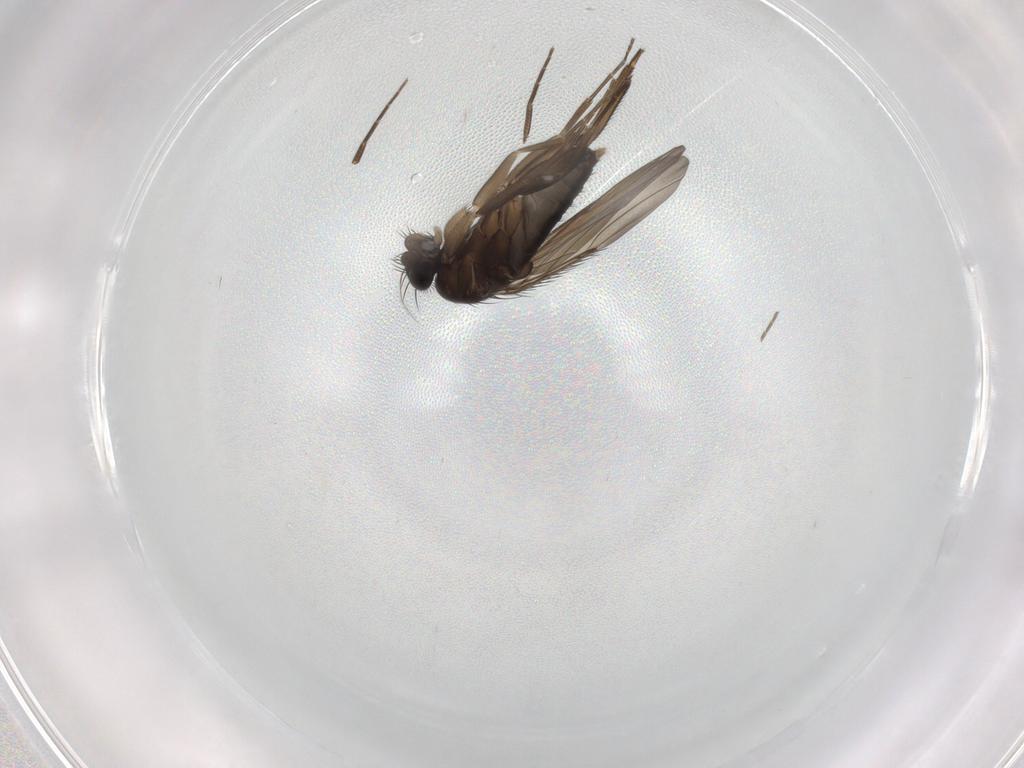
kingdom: Animalia
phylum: Arthropoda
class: Insecta
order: Diptera
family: Phoridae
